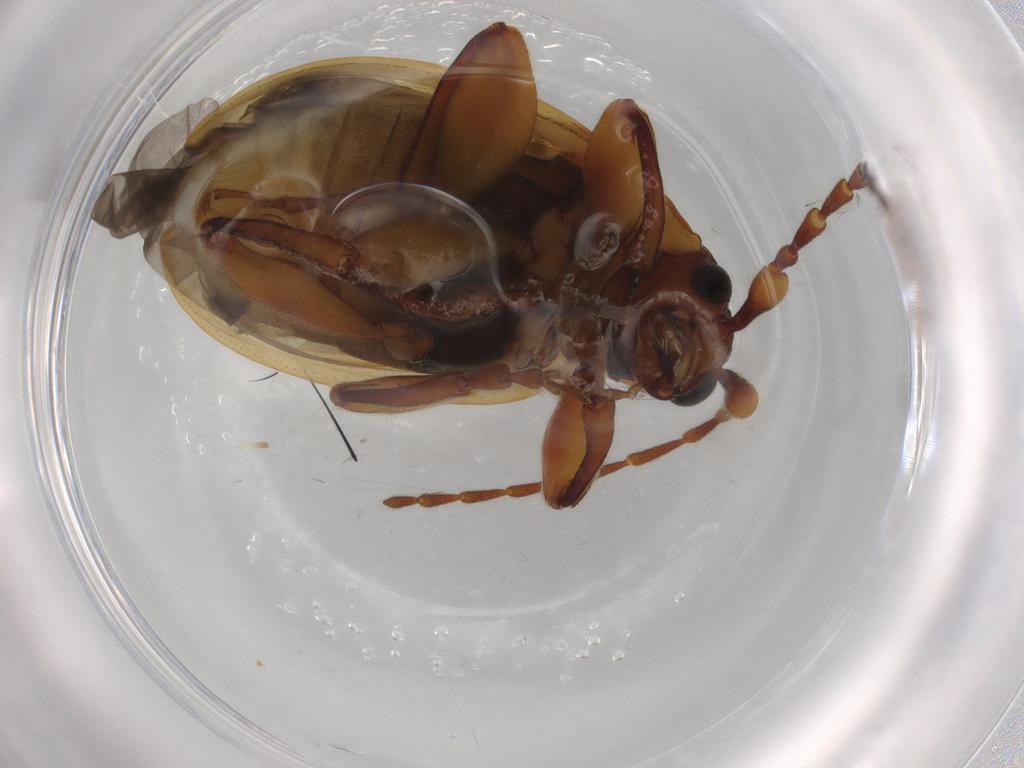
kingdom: Animalia
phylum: Arthropoda
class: Insecta
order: Coleoptera
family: Chrysomelidae
